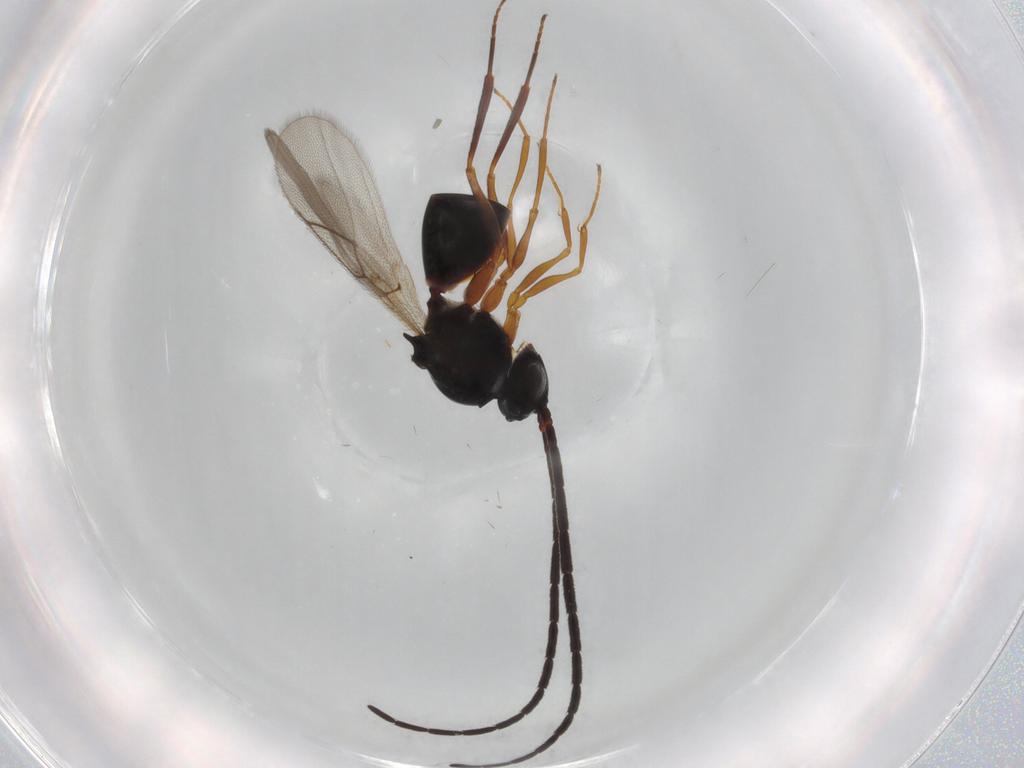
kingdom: Animalia
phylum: Arthropoda
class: Insecta
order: Hymenoptera
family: Figitidae
